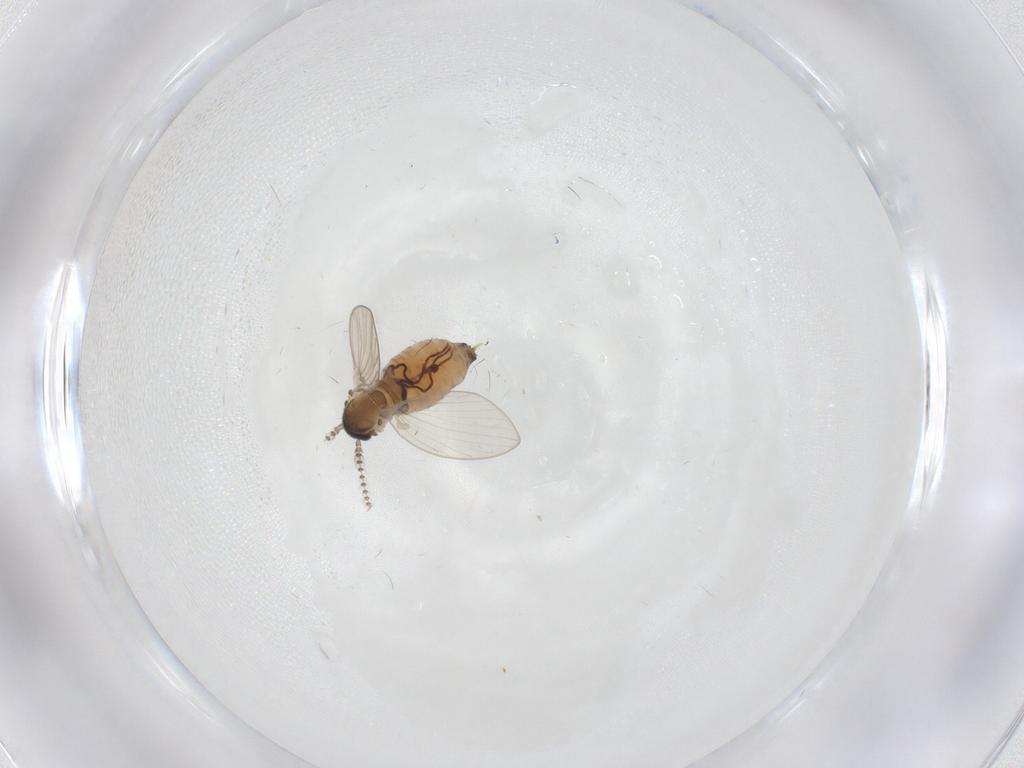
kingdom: Animalia
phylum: Arthropoda
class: Insecta
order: Diptera
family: Psychodidae
